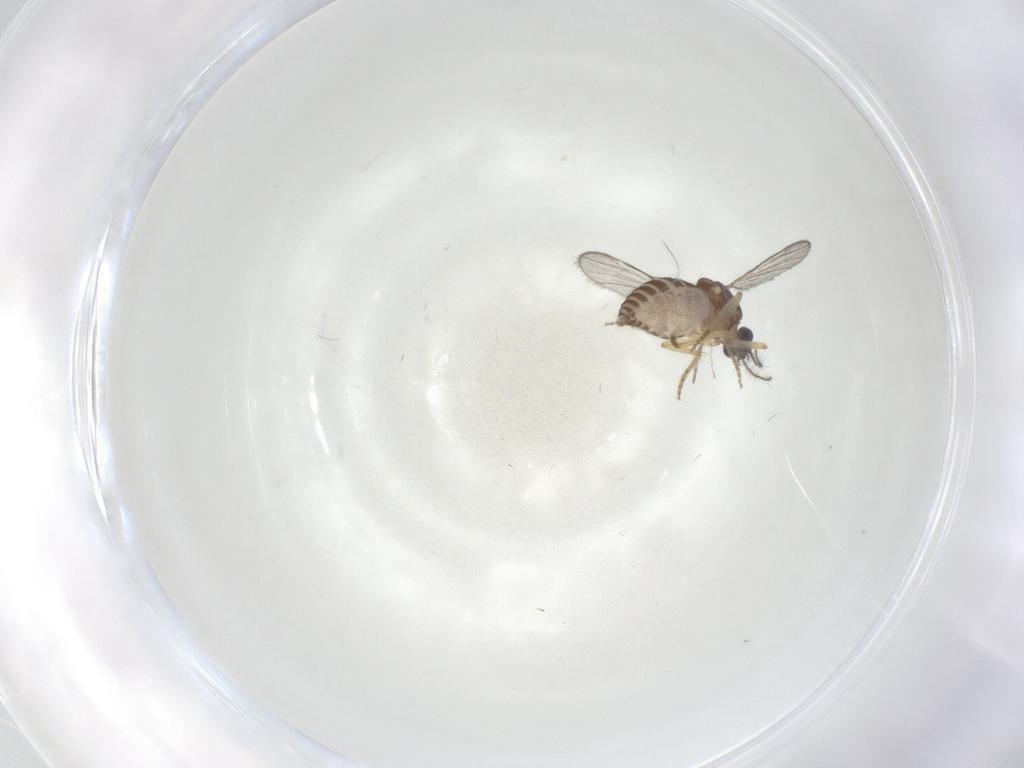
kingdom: Animalia
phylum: Arthropoda
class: Insecta
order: Diptera
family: Ceratopogonidae
